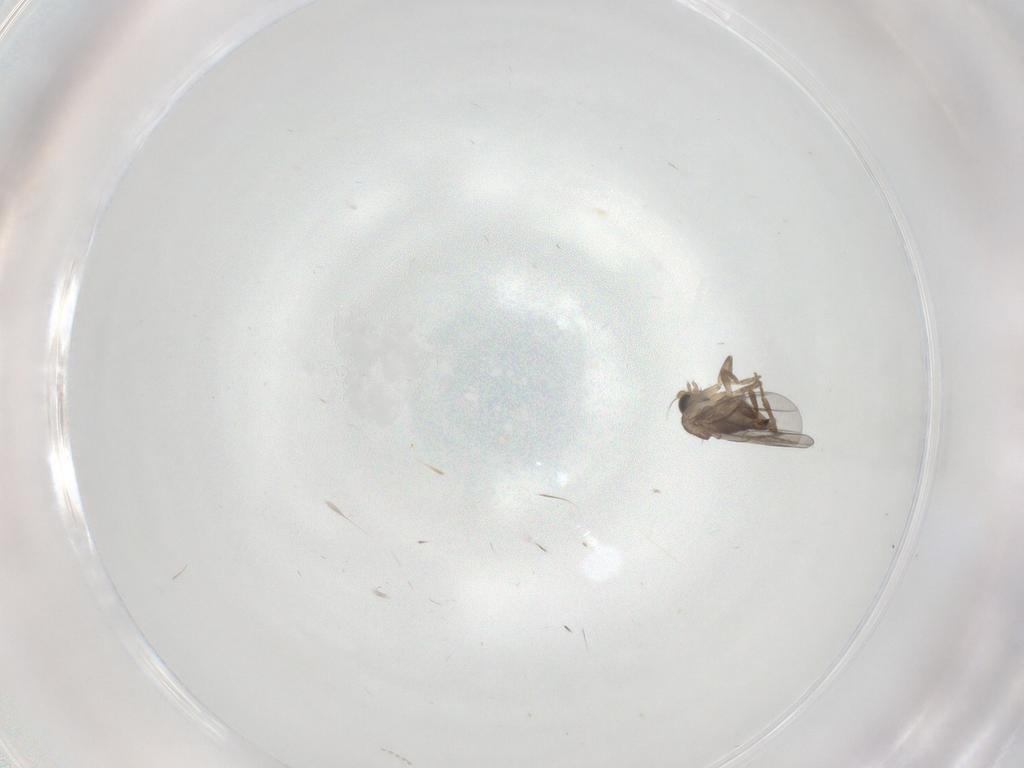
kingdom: Animalia
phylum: Arthropoda
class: Insecta
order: Diptera
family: Cecidomyiidae
